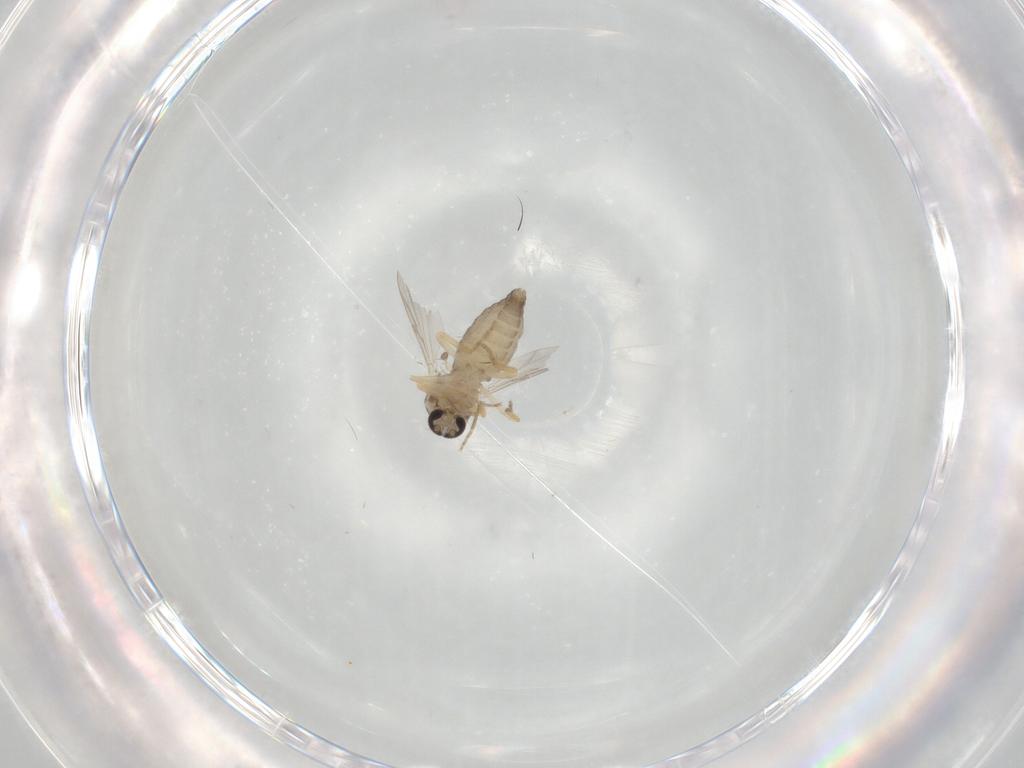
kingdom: Animalia
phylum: Arthropoda
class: Insecta
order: Diptera
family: Ceratopogonidae
